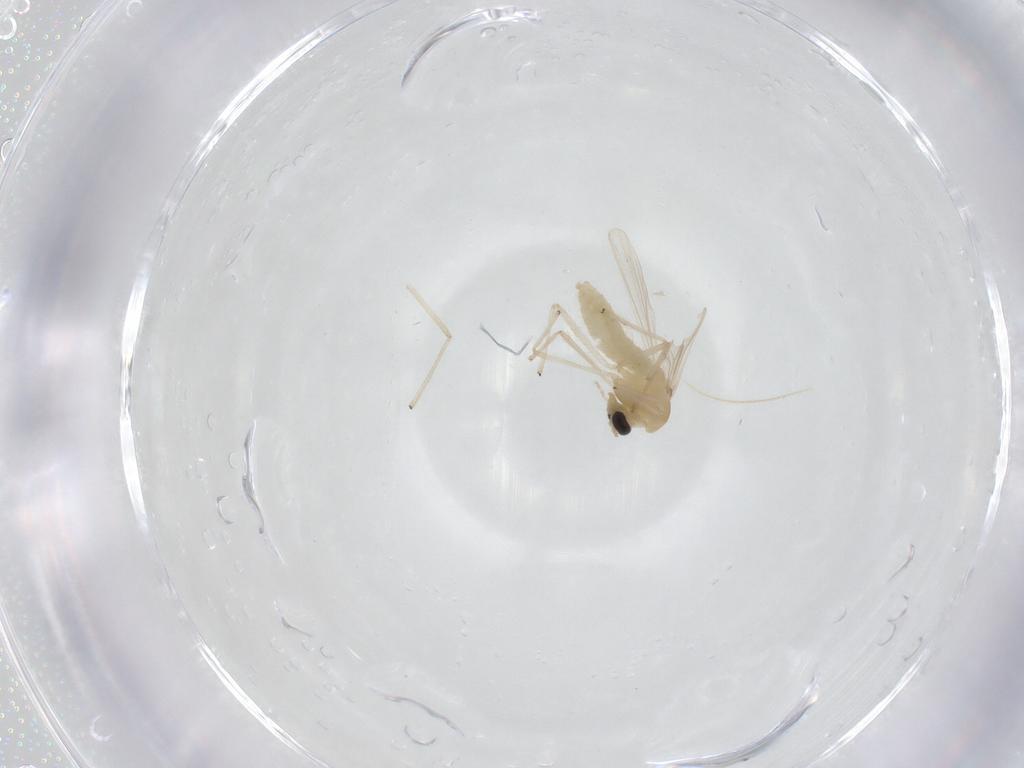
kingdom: Animalia
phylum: Arthropoda
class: Insecta
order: Diptera
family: Chironomidae
